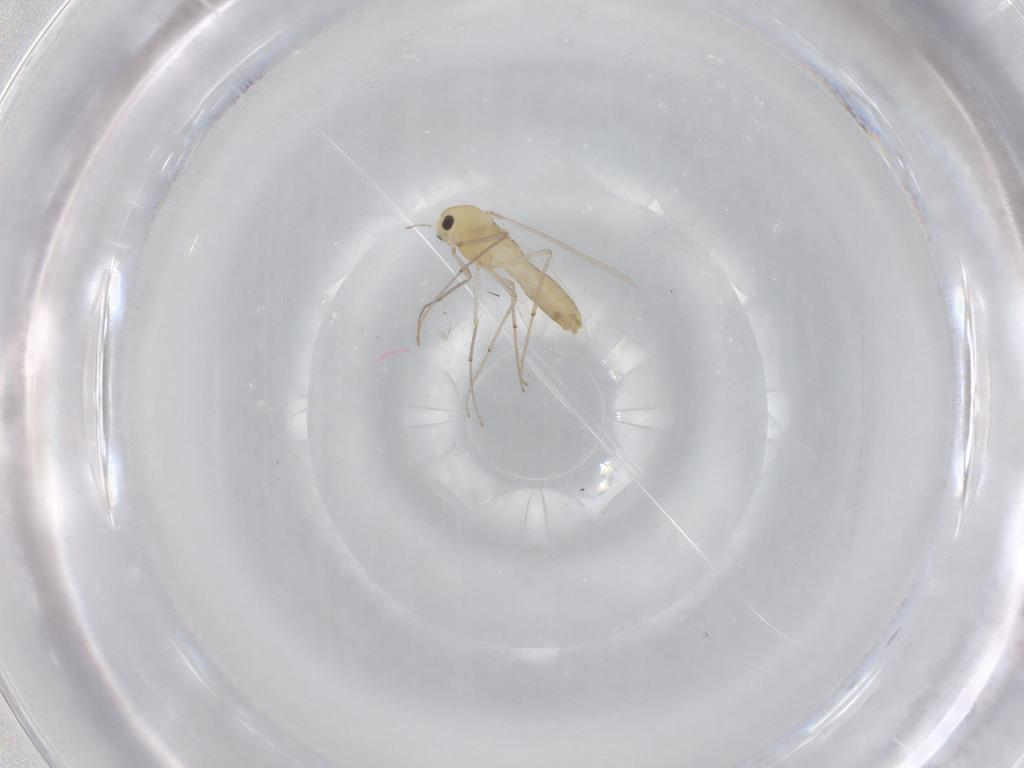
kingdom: Animalia
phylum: Arthropoda
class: Insecta
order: Diptera
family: Chironomidae
